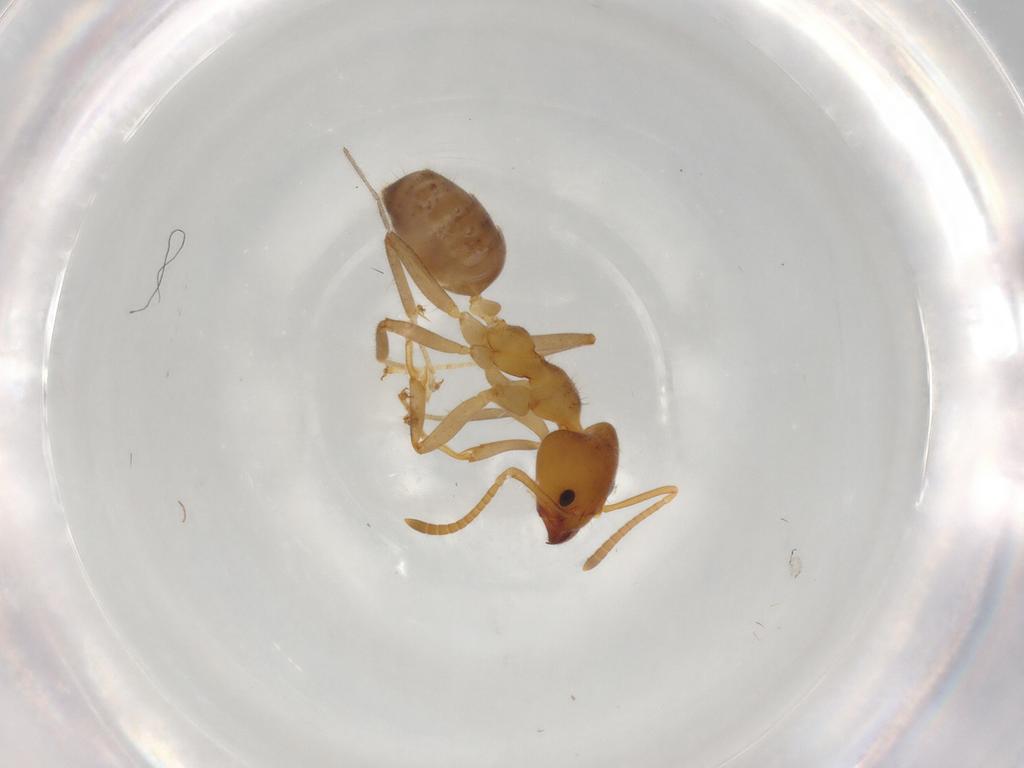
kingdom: Animalia
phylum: Arthropoda
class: Insecta
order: Hymenoptera
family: Formicidae
